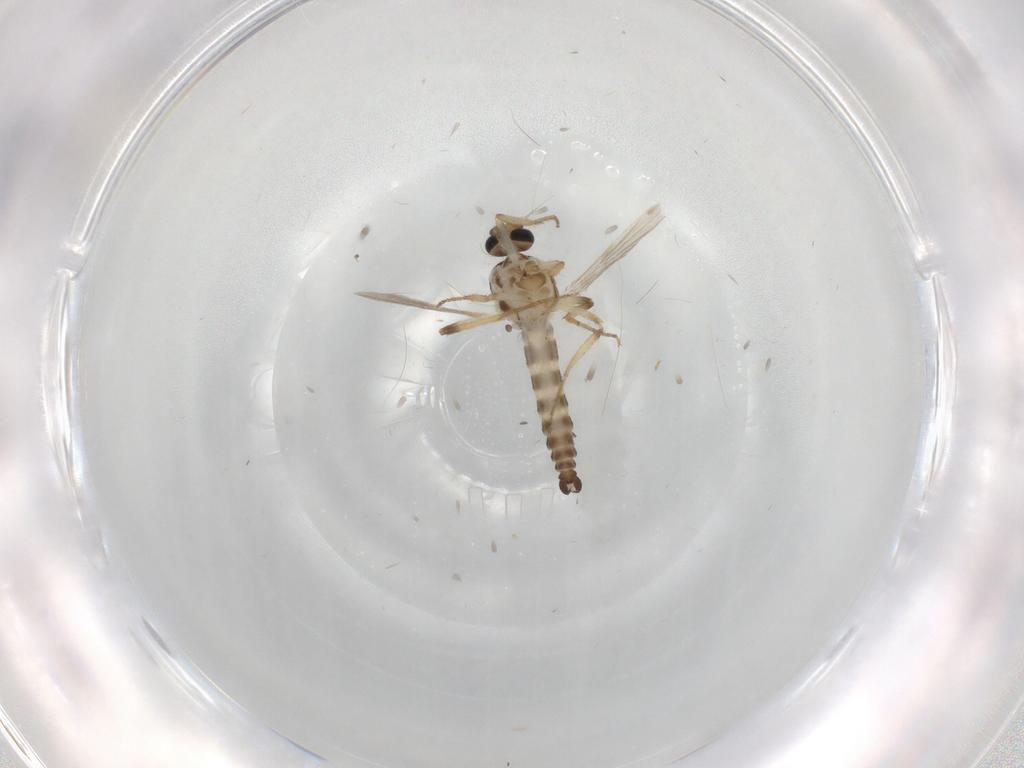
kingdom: Animalia
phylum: Arthropoda
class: Insecta
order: Diptera
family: Ceratopogonidae
